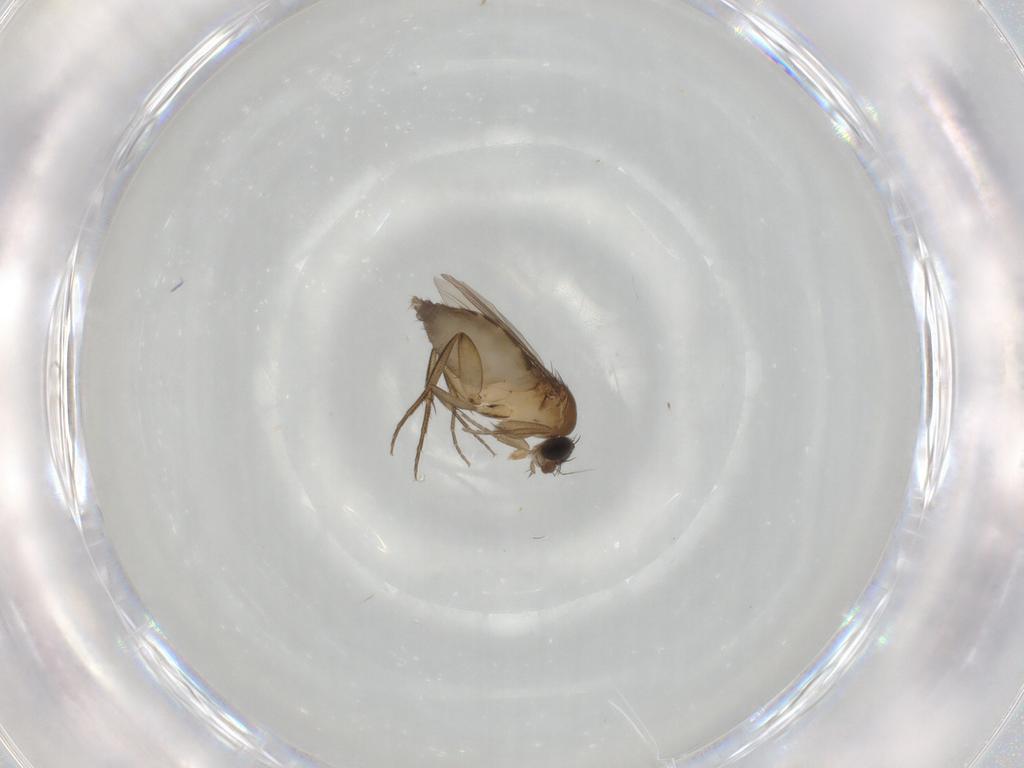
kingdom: Animalia
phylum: Arthropoda
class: Insecta
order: Diptera
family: Phoridae
